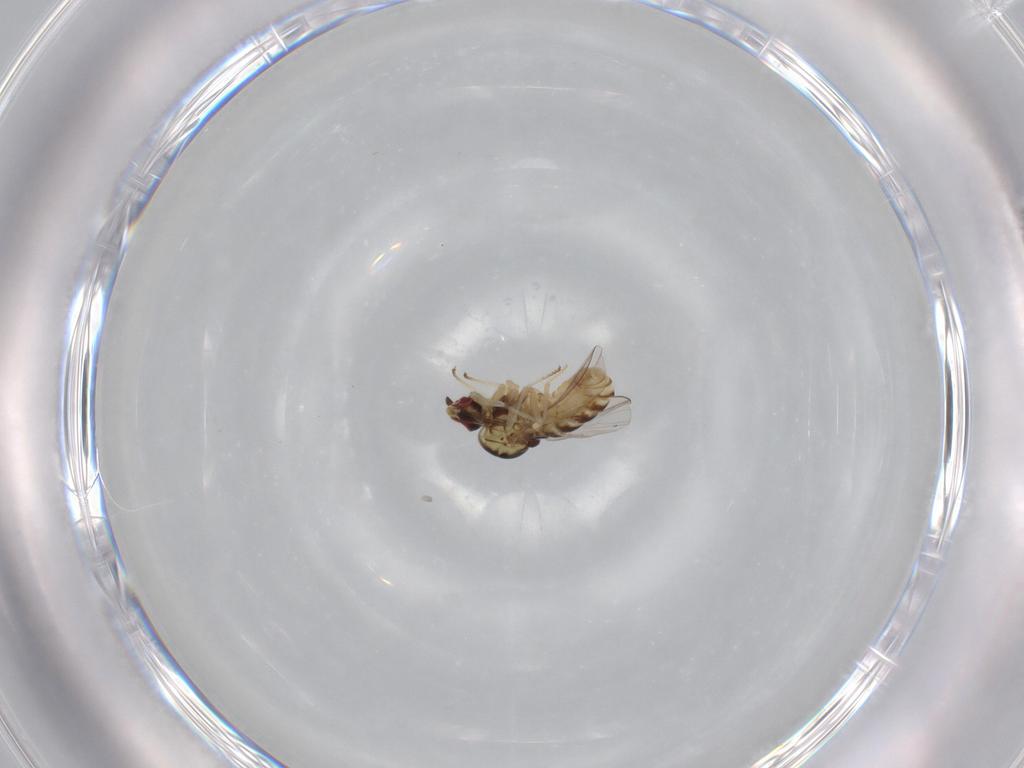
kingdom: Animalia
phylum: Arthropoda
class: Insecta
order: Diptera
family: Bombyliidae
